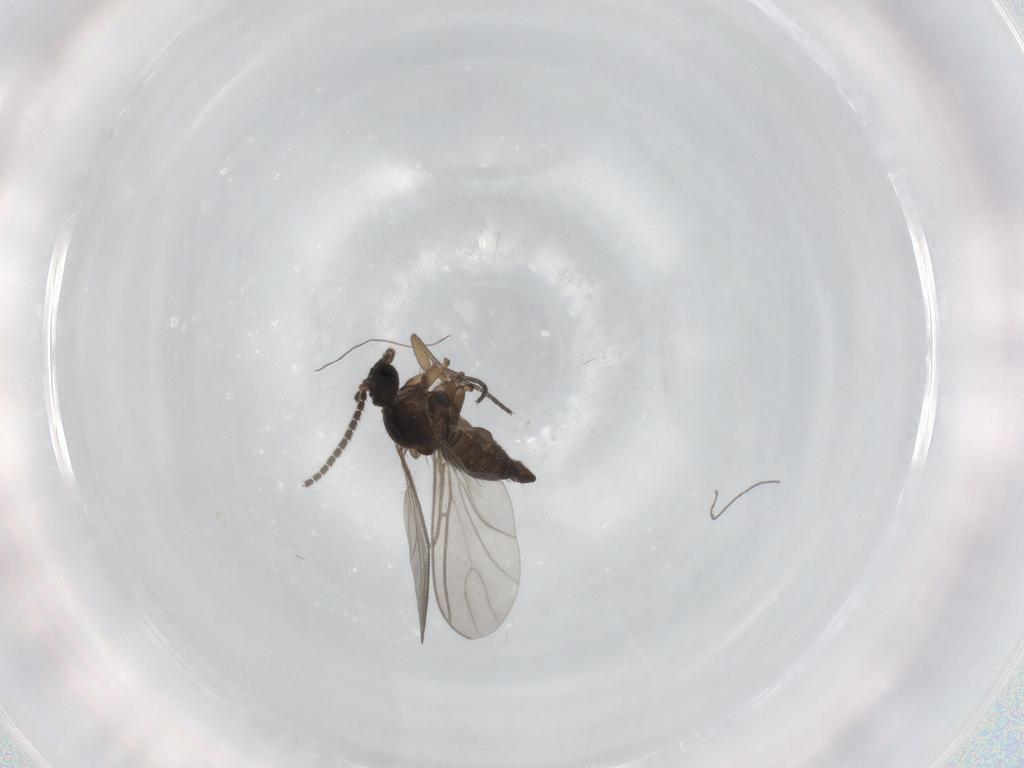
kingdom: Animalia
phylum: Arthropoda
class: Insecta
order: Diptera
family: Sciaridae
